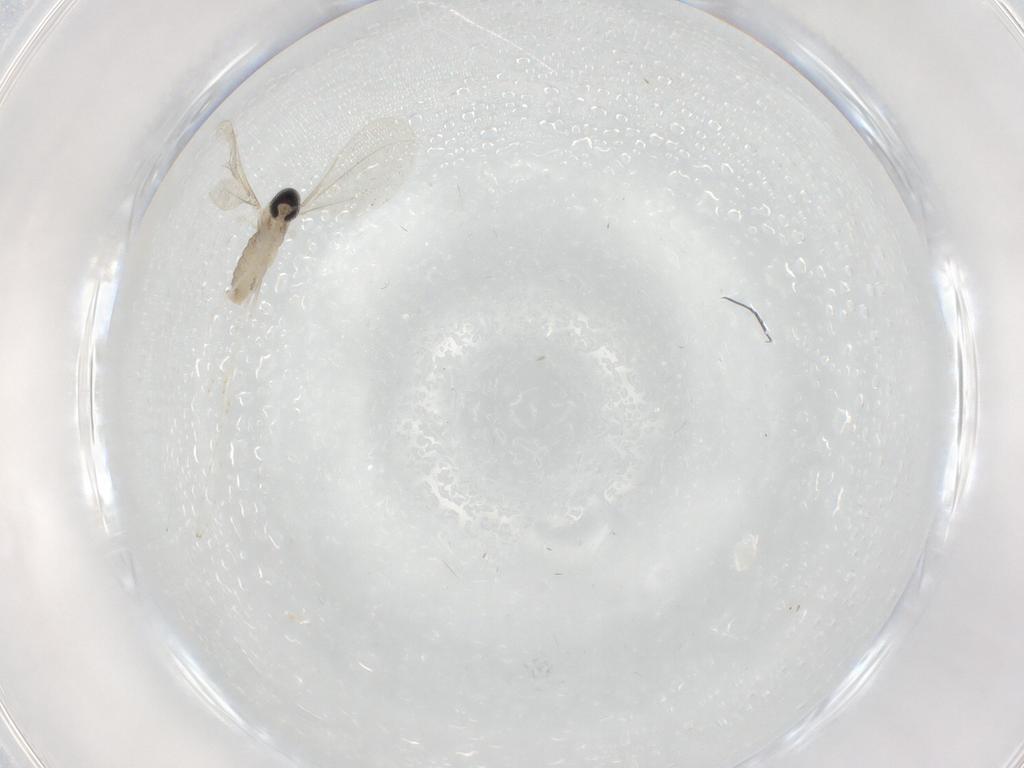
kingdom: Animalia
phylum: Arthropoda
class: Insecta
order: Diptera
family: Cecidomyiidae
